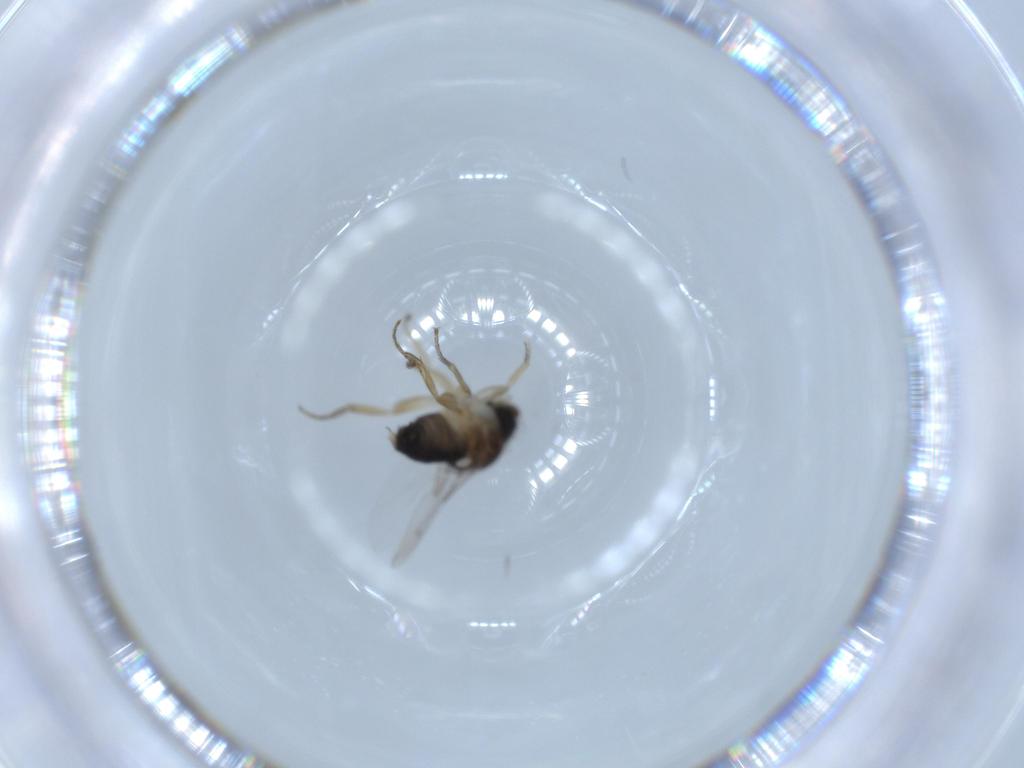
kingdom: Animalia
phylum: Arthropoda
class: Insecta
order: Diptera
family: Phoridae
